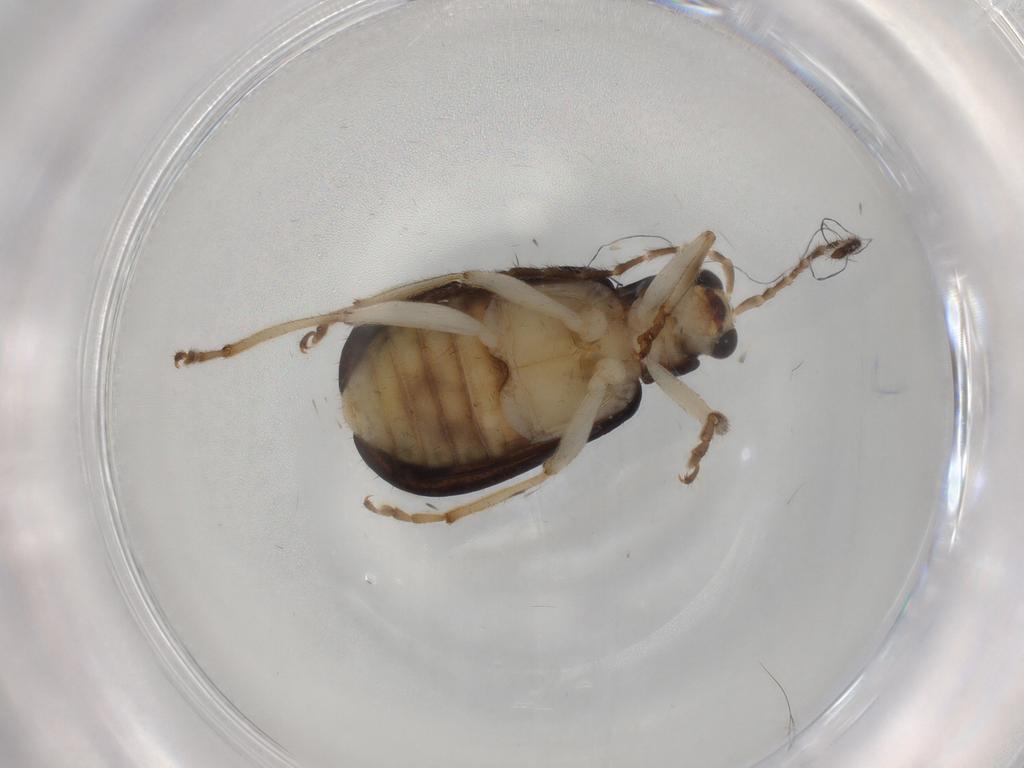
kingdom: Animalia
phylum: Arthropoda
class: Insecta
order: Coleoptera
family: Chrysomelidae
